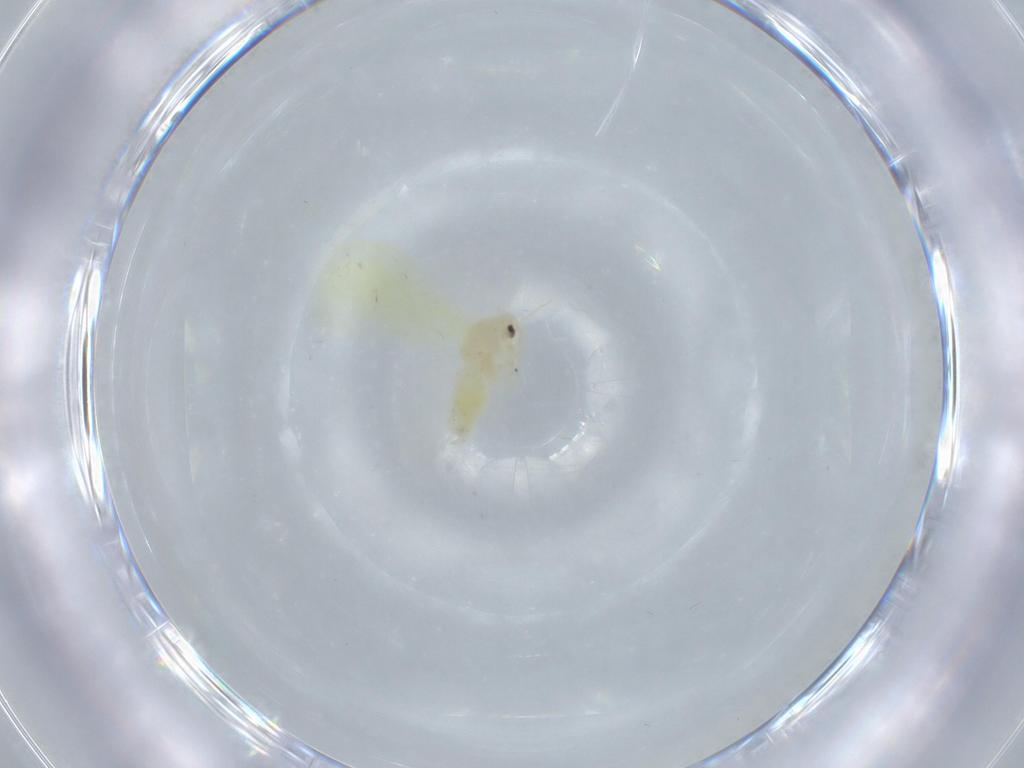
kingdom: Animalia
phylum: Arthropoda
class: Insecta
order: Hemiptera
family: Aleyrodidae
